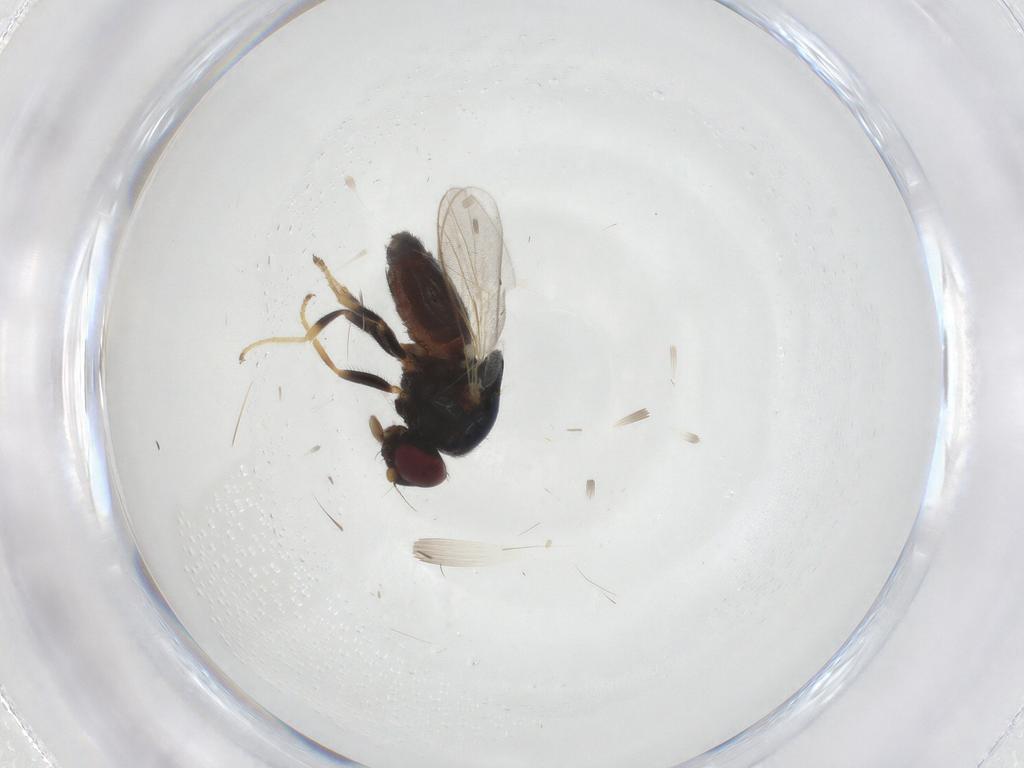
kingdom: Animalia
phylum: Arthropoda
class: Insecta
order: Diptera
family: Chloropidae
